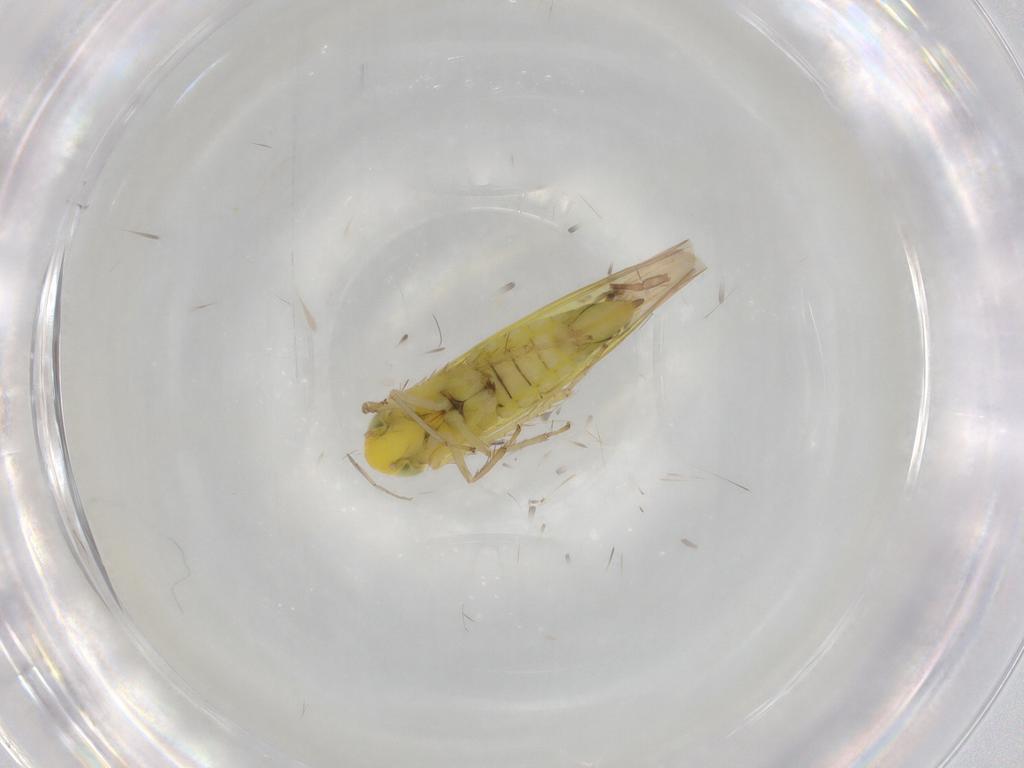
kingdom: Animalia
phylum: Arthropoda
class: Insecta
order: Hemiptera
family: Cicadellidae
